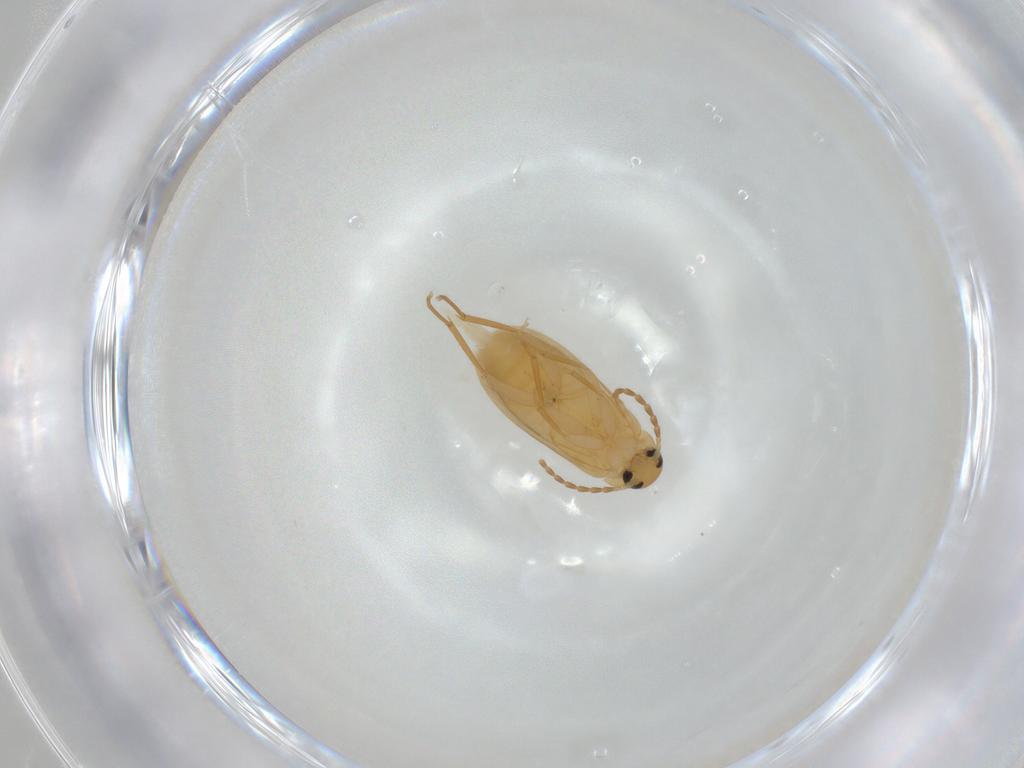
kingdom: Animalia
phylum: Arthropoda
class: Insecta
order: Coleoptera
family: Scraptiidae
